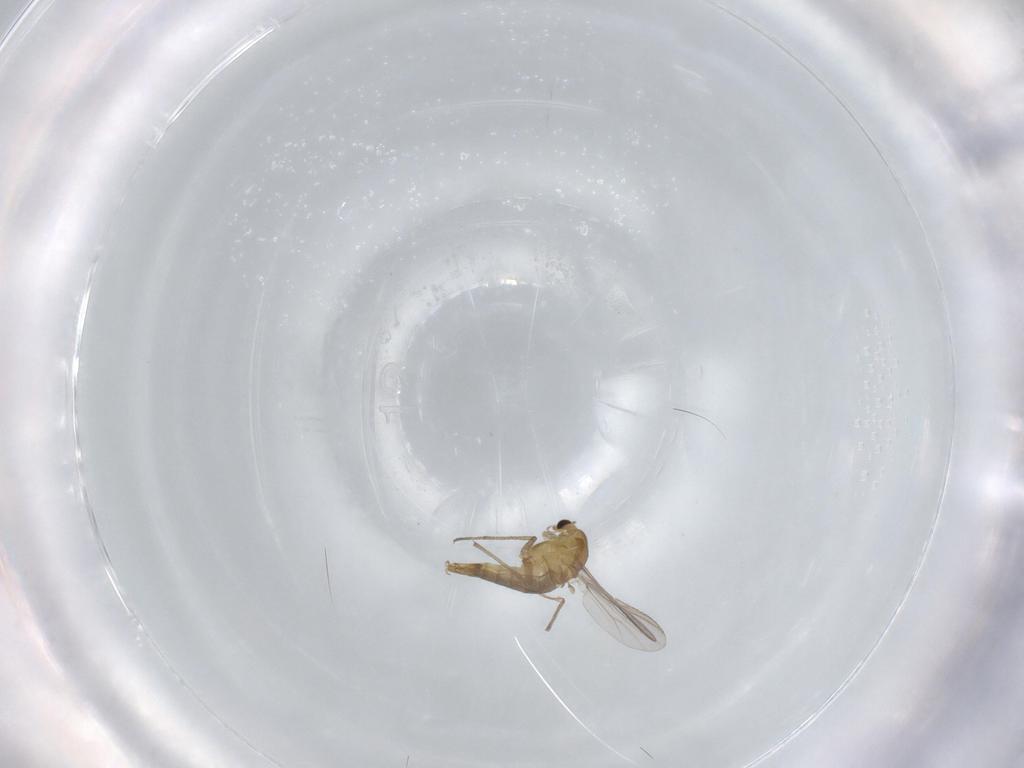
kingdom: Animalia
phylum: Arthropoda
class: Insecta
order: Diptera
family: Chironomidae
